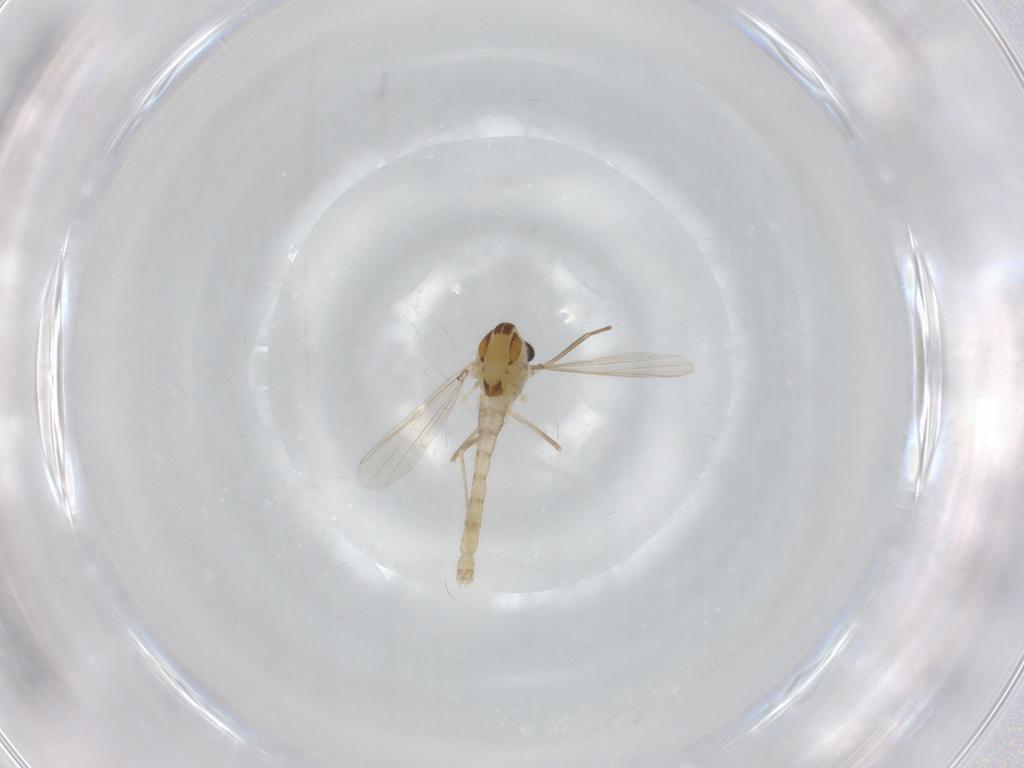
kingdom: Animalia
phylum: Arthropoda
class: Insecta
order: Diptera
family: Chironomidae
